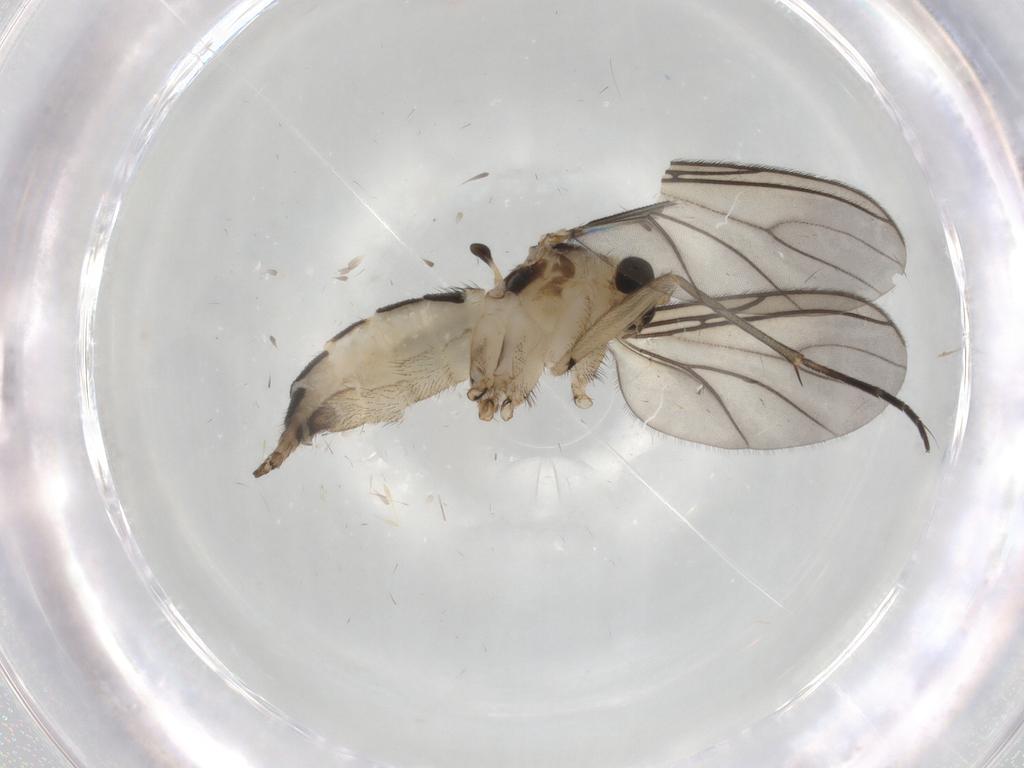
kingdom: Animalia
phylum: Arthropoda
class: Insecta
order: Diptera
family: Sciaridae
